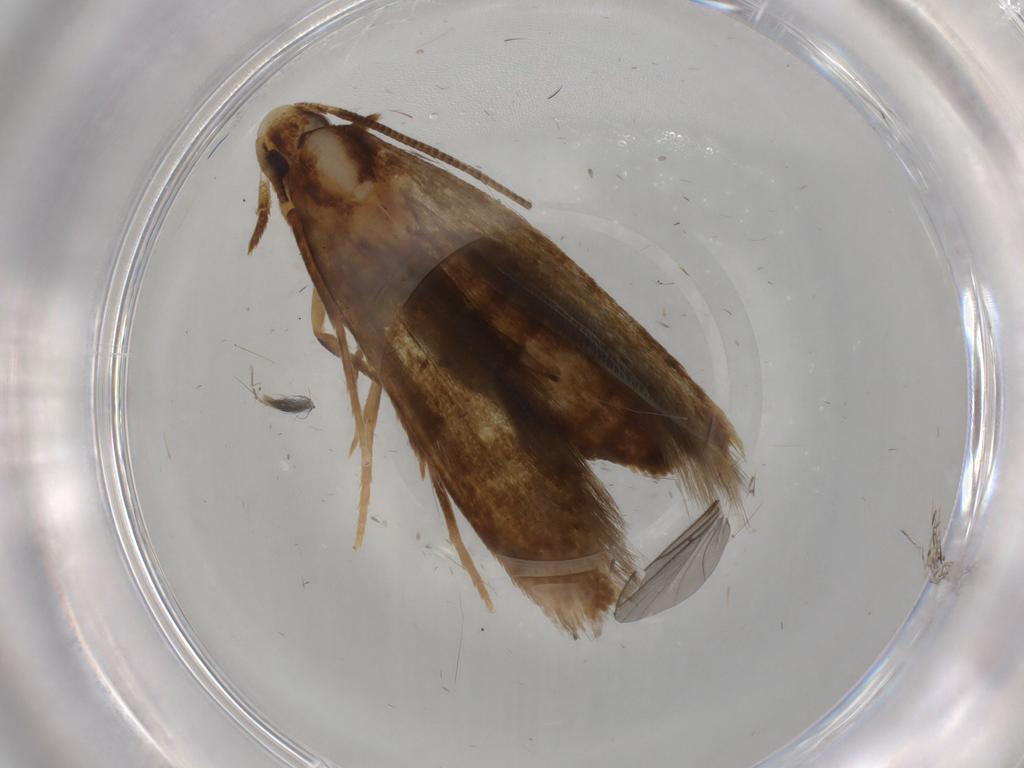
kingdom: Animalia
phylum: Arthropoda
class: Insecta
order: Lepidoptera
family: Tineidae
